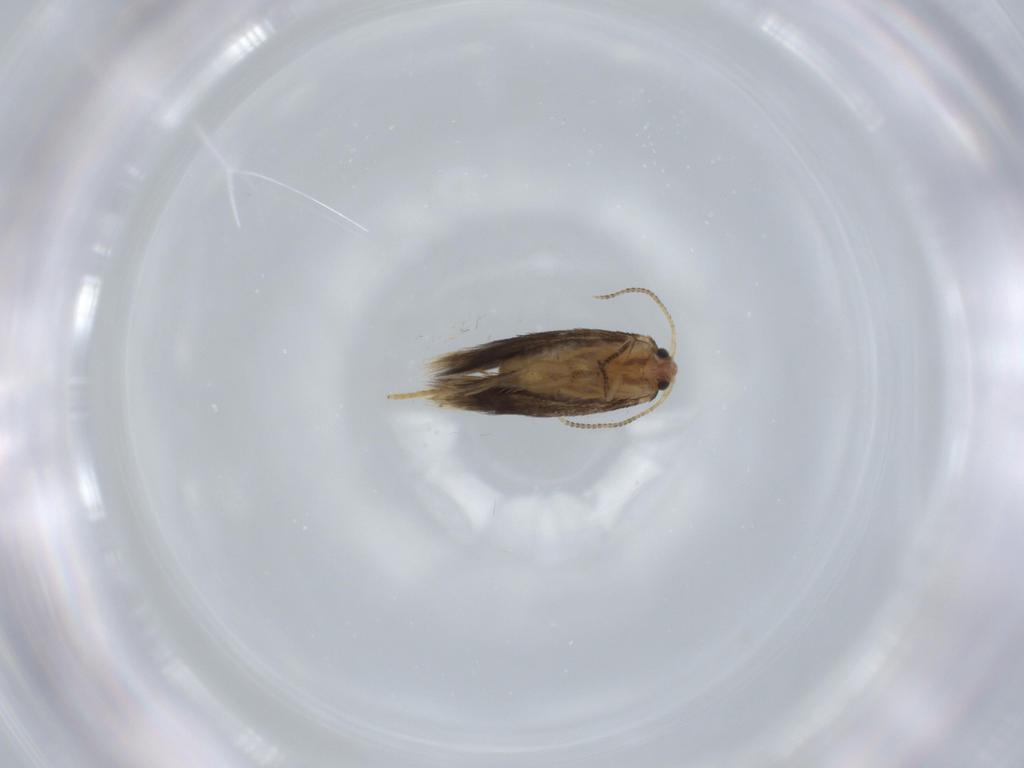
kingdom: Animalia
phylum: Arthropoda
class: Insecta
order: Lepidoptera
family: Nepticulidae
